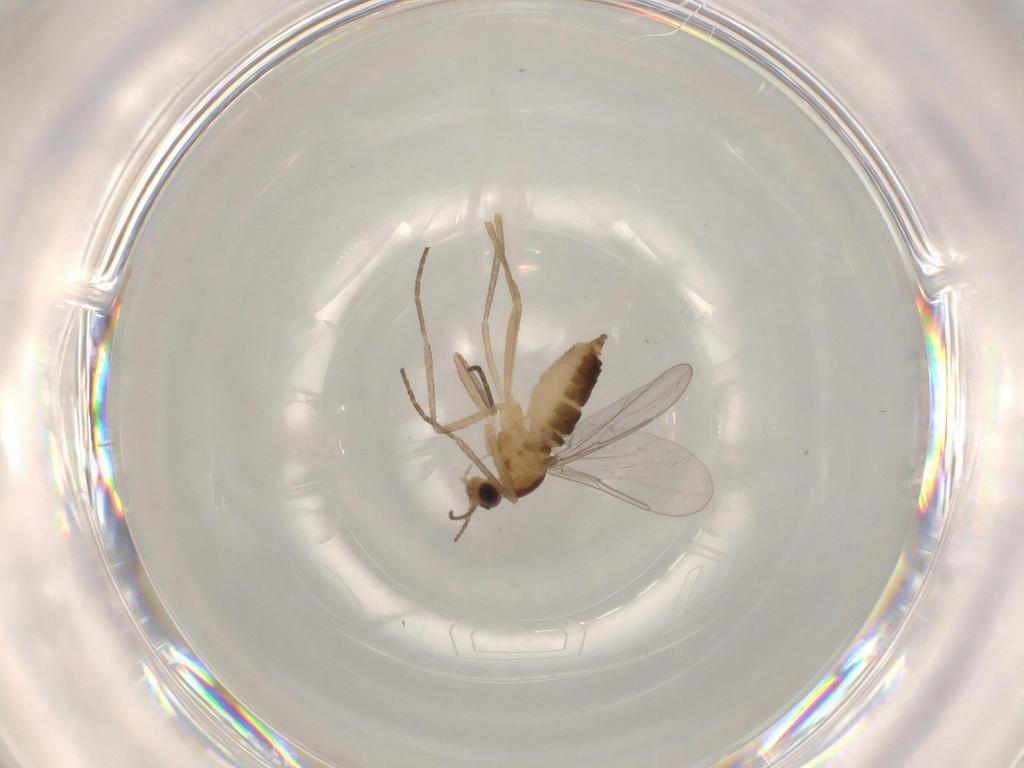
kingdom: Animalia
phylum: Arthropoda
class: Insecta
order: Diptera
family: Cecidomyiidae
